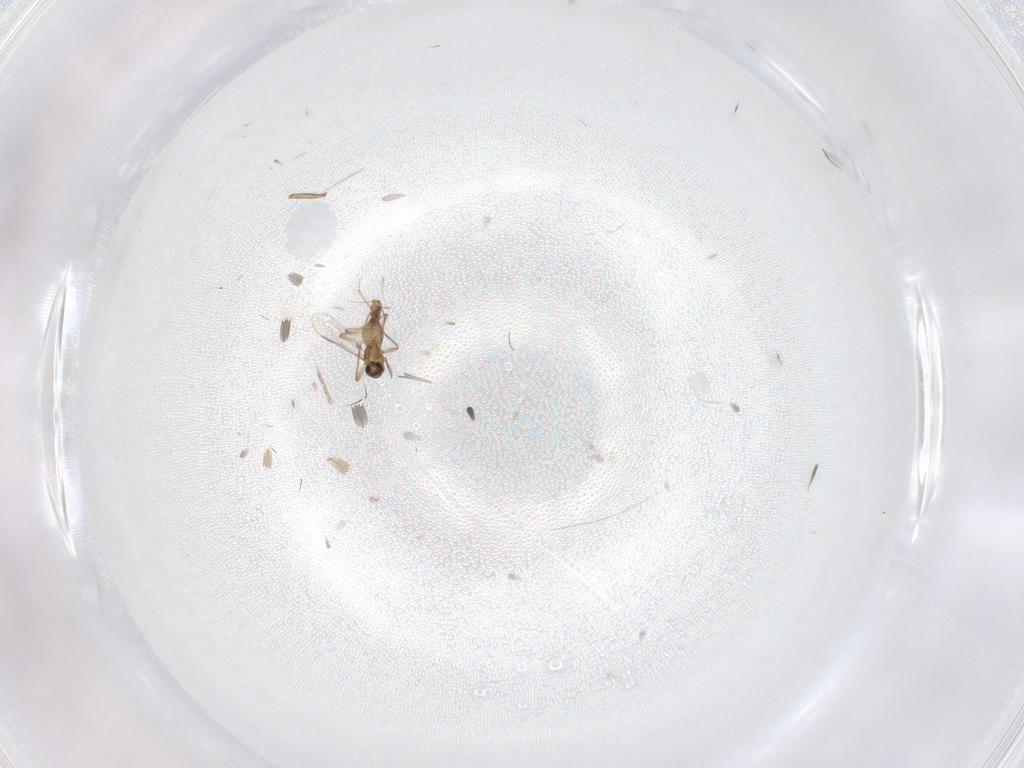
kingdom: Animalia
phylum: Arthropoda
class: Insecta
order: Diptera
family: Chironomidae
